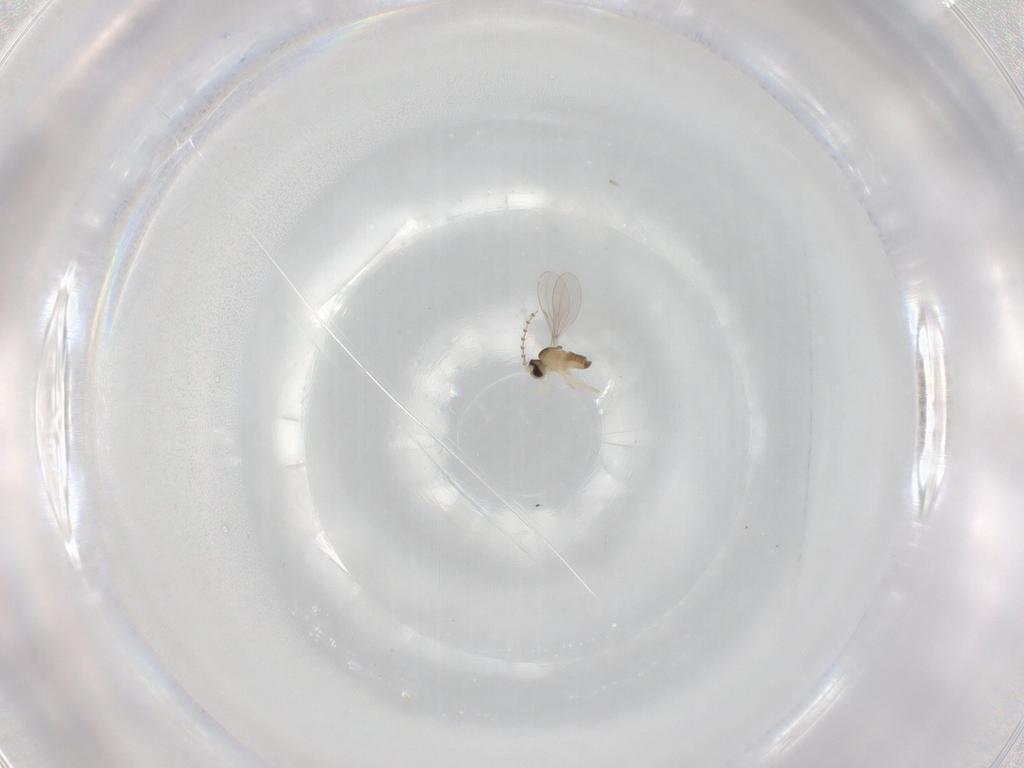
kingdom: Animalia
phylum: Arthropoda
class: Insecta
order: Diptera
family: Cecidomyiidae
